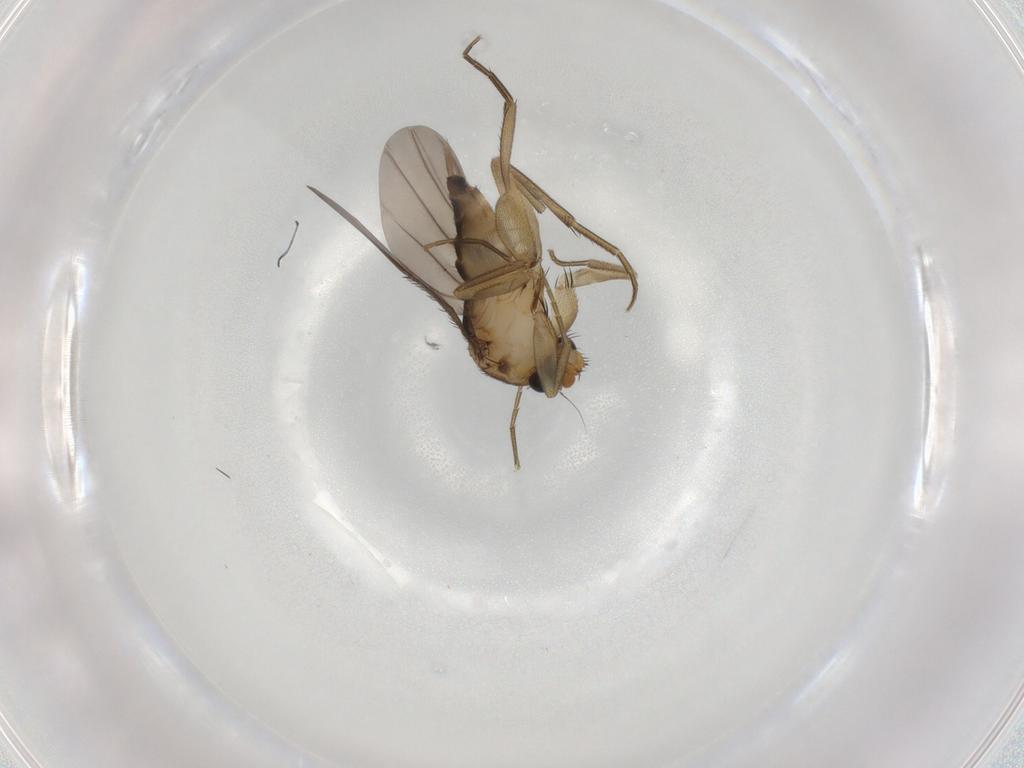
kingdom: Animalia
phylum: Arthropoda
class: Insecta
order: Diptera
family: Phoridae
